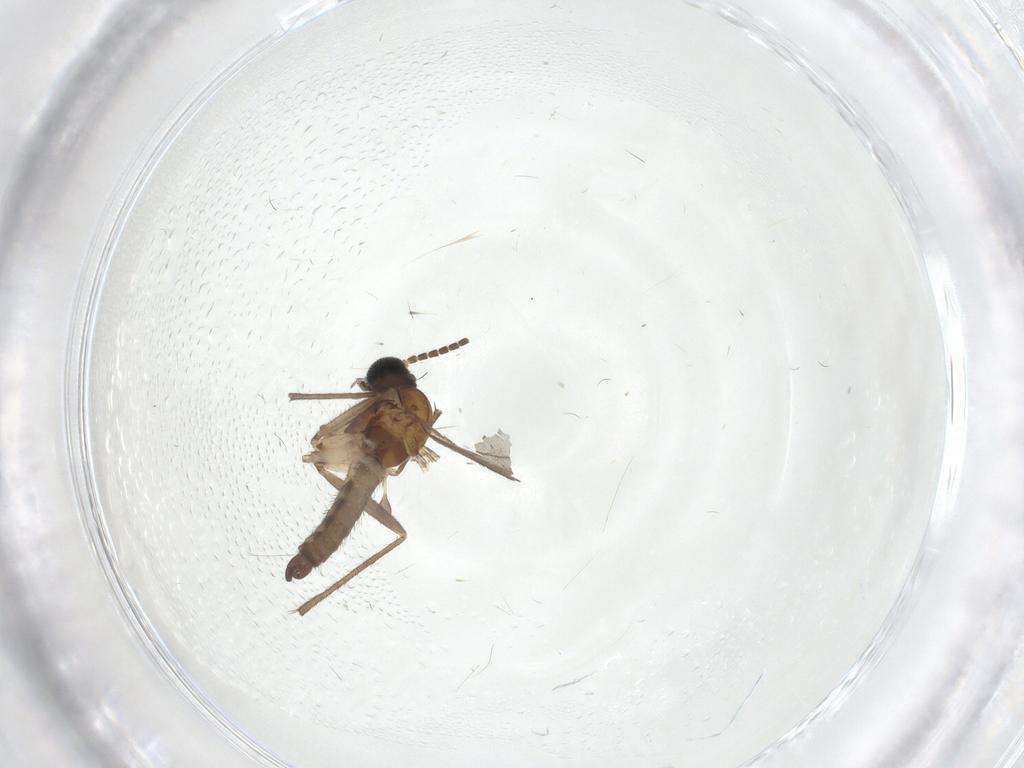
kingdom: Animalia
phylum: Arthropoda
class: Insecta
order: Diptera
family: Sciaridae
